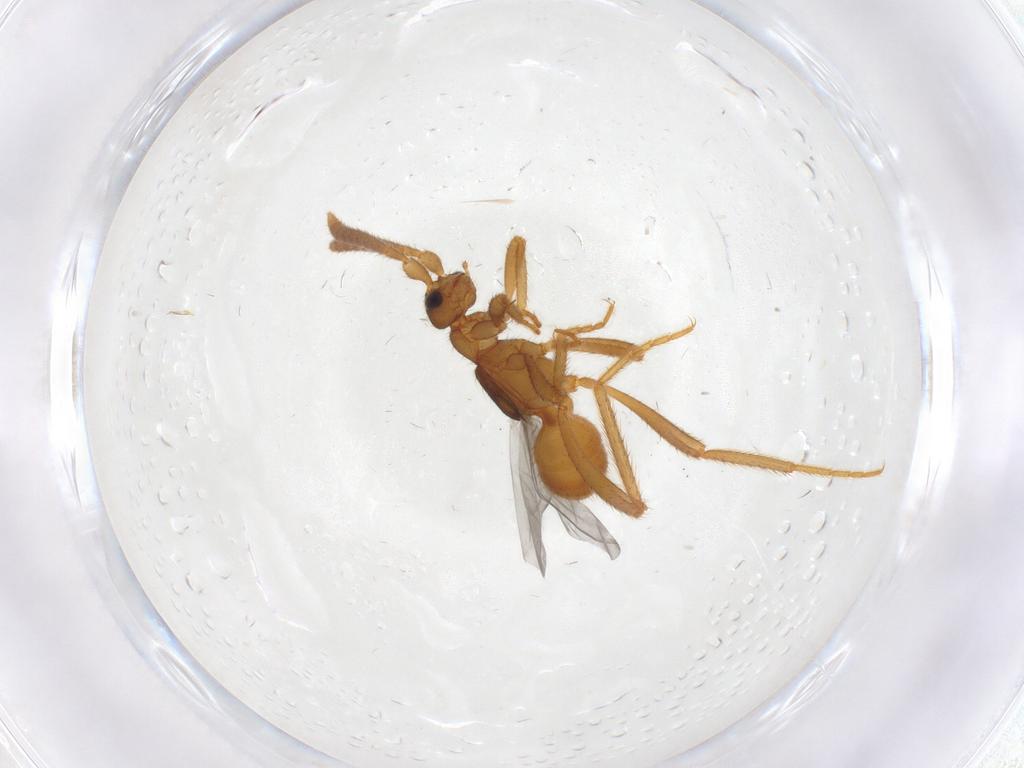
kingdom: Animalia
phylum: Arthropoda
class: Insecta
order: Coleoptera
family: Staphylinidae
